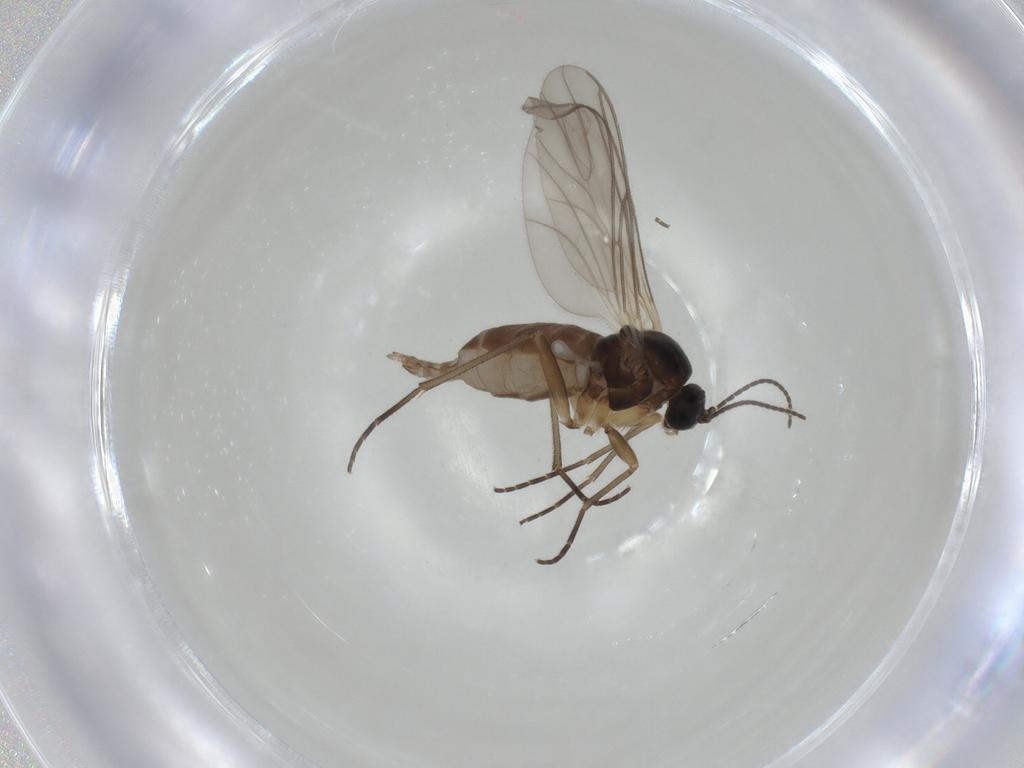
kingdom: Animalia
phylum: Arthropoda
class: Insecta
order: Diptera
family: Sciaridae
